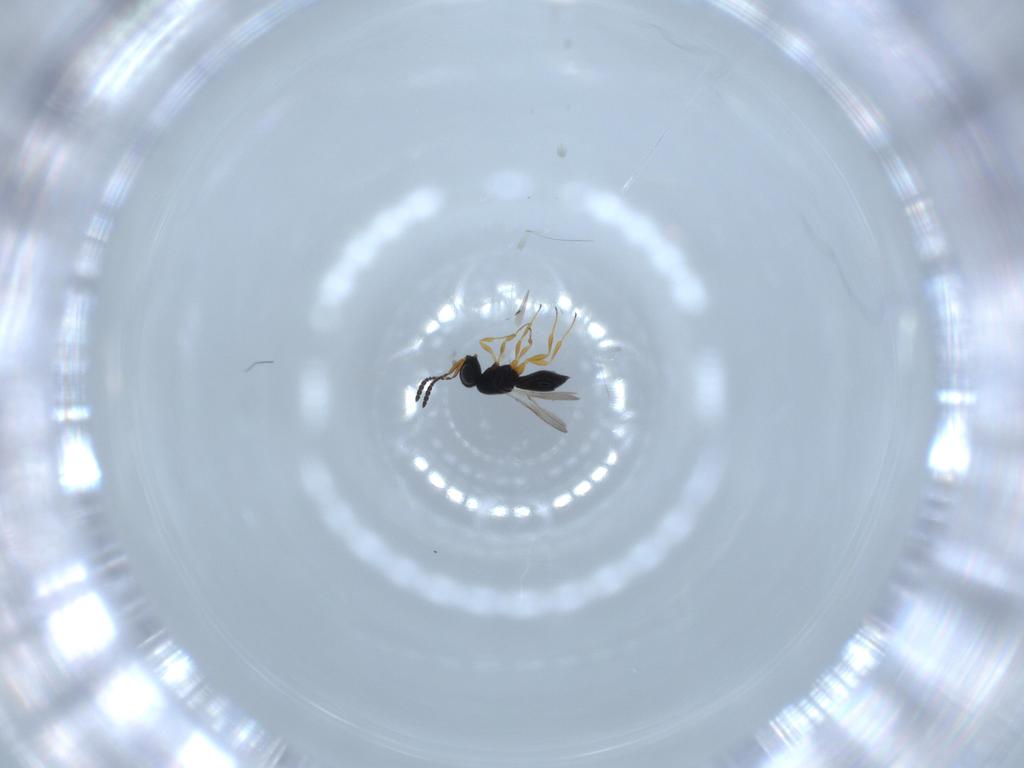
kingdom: Animalia
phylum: Arthropoda
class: Insecta
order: Hymenoptera
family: Scelionidae
